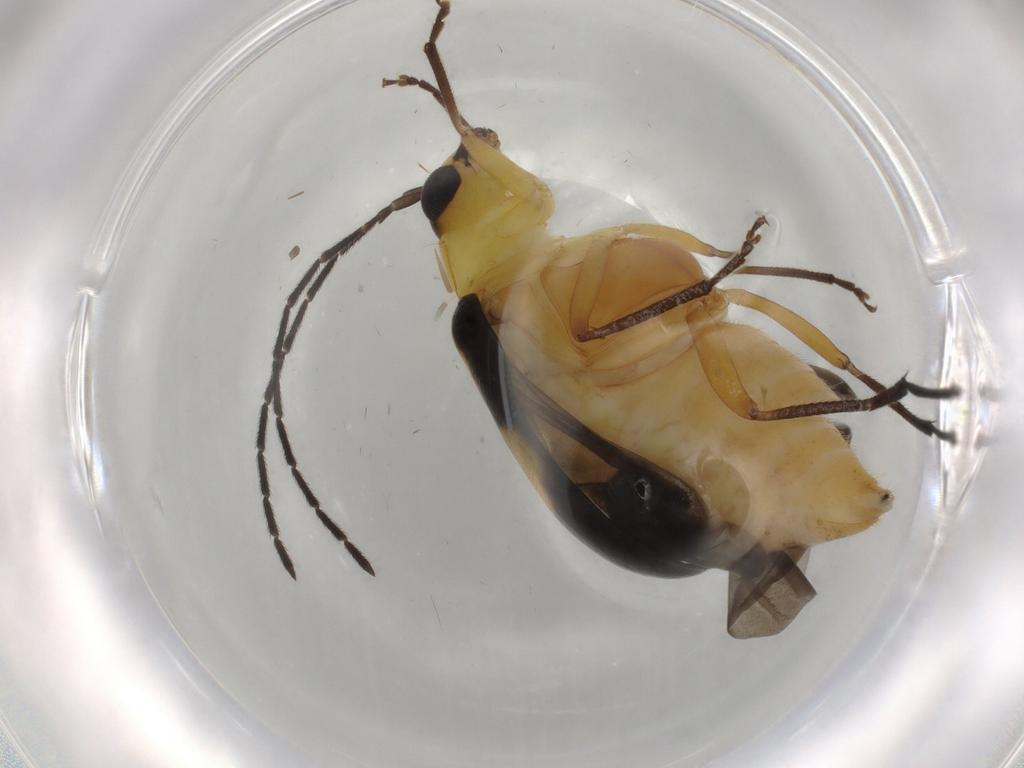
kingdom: Animalia
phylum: Arthropoda
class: Insecta
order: Coleoptera
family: Chrysomelidae
